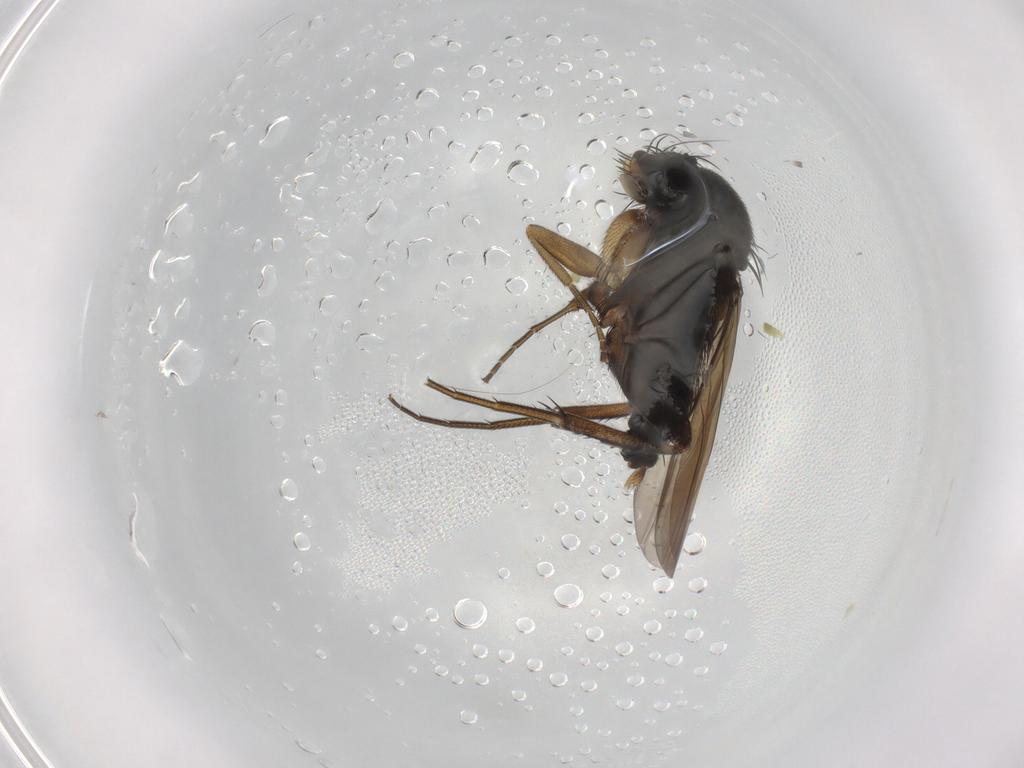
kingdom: Animalia
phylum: Arthropoda
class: Insecta
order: Diptera
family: Phoridae
